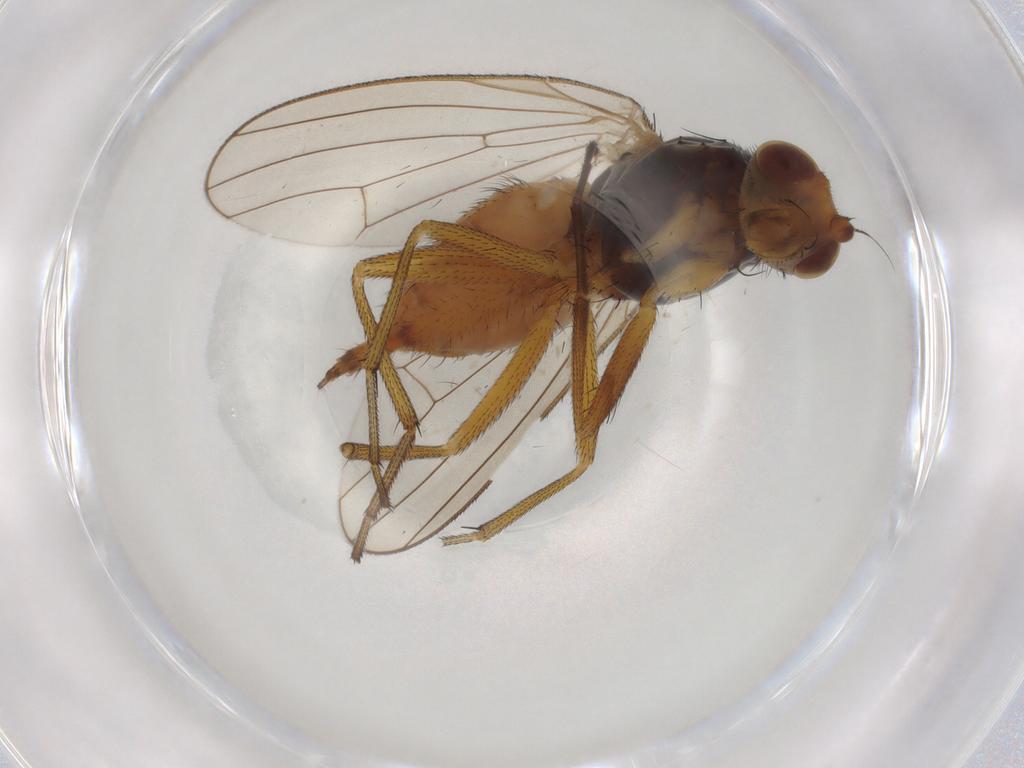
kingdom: Animalia
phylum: Arthropoda
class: Insecta
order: Diptera
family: Heleomyzidae
